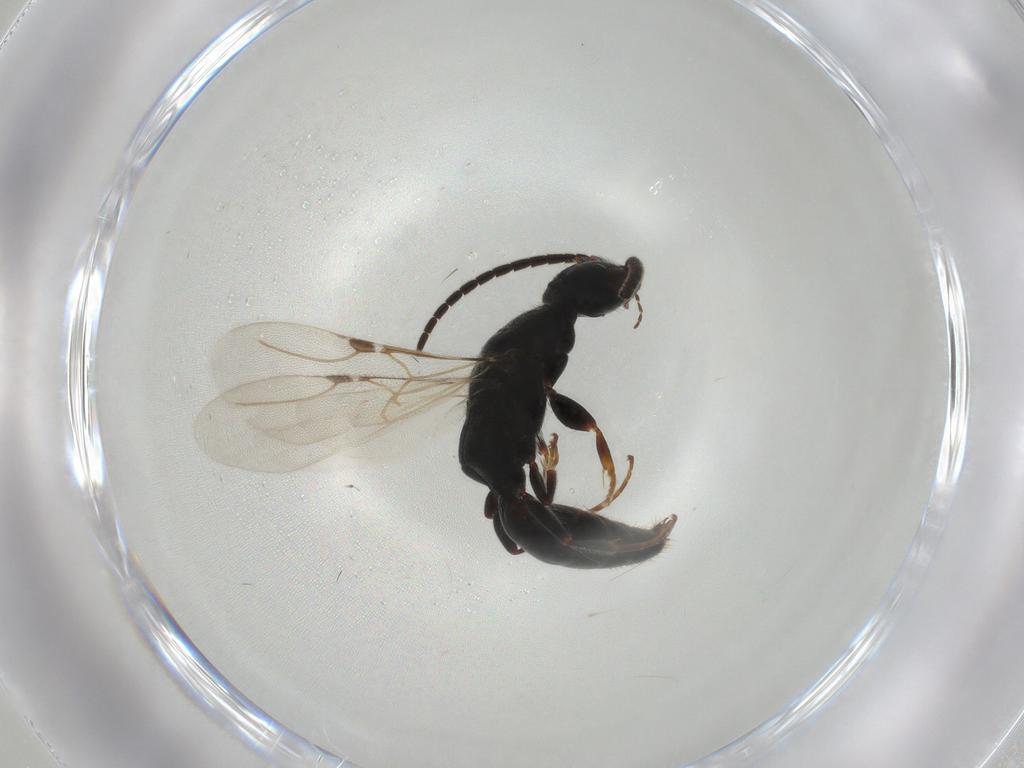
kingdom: Animalia
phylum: Arthropoda
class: Insecta
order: Hymenoptera
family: Bethylidae
